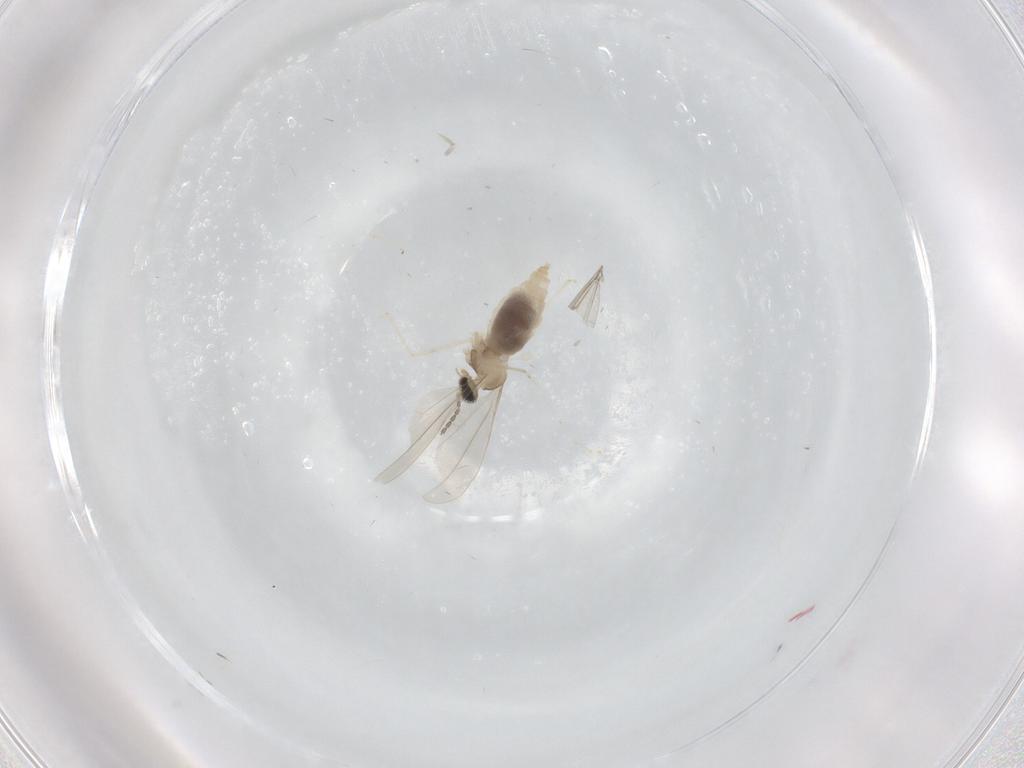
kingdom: Animalia
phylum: Arthropoda
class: Insecta
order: Diptera
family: Cecidomyiidae
